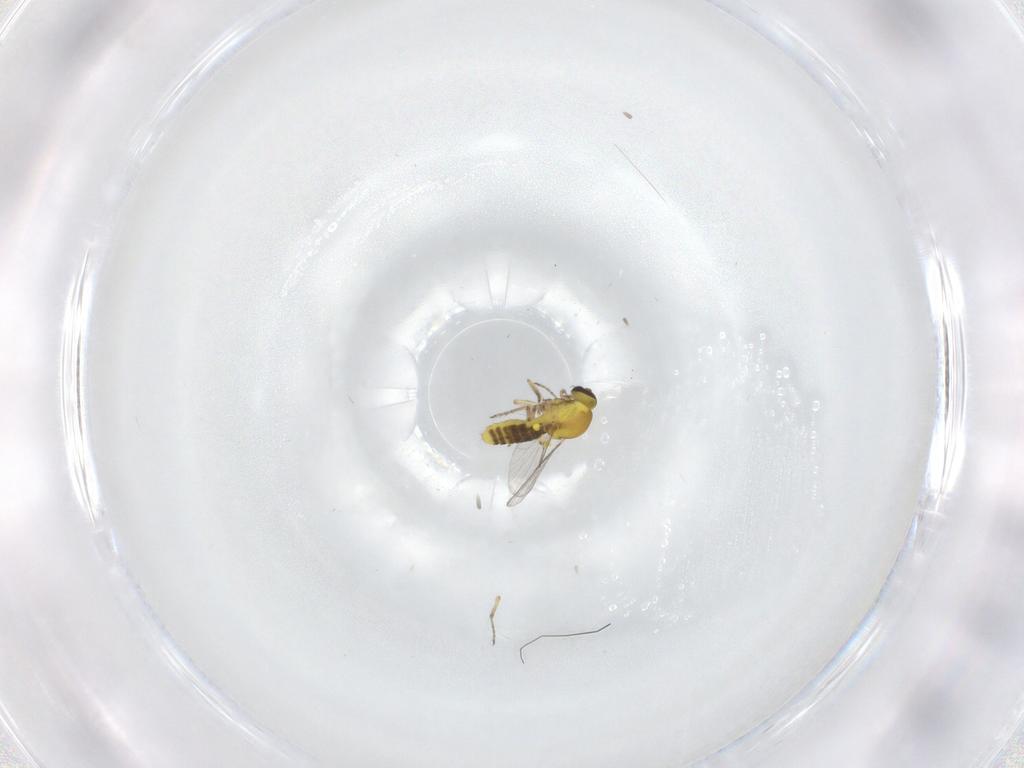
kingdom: Animalia
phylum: Arthropoda
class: Insecta
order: Diptera
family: Ceratopogonidae
